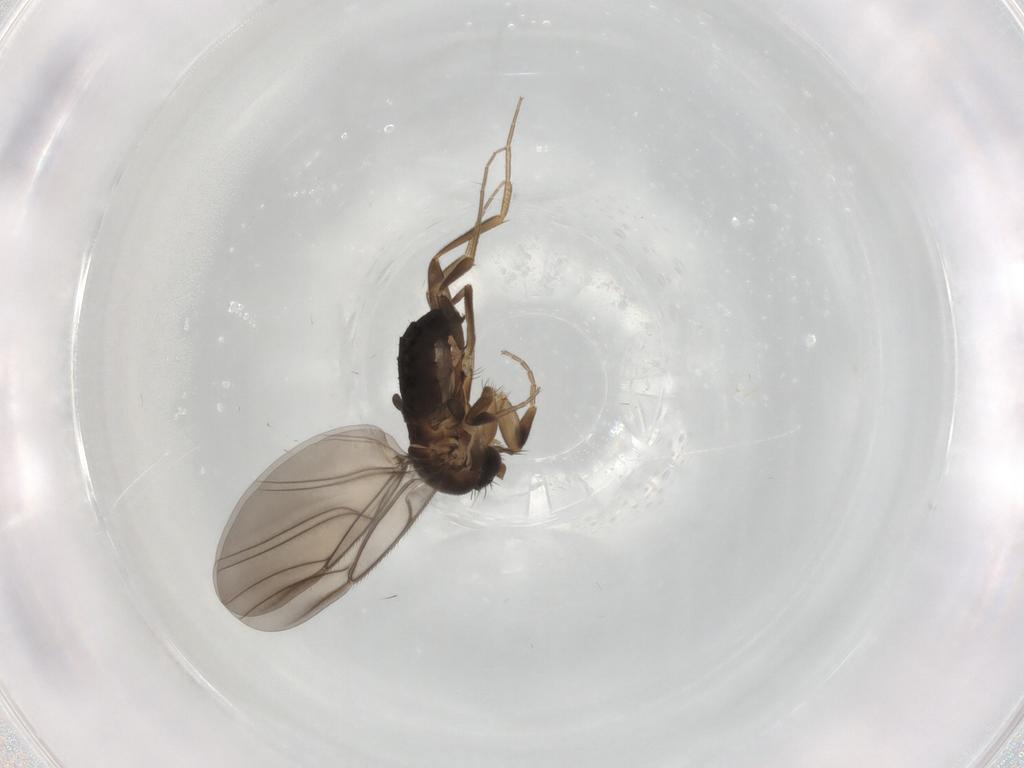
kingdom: Animalia
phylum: Arthropoda
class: Insecta
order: Diptera
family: Phoridae
